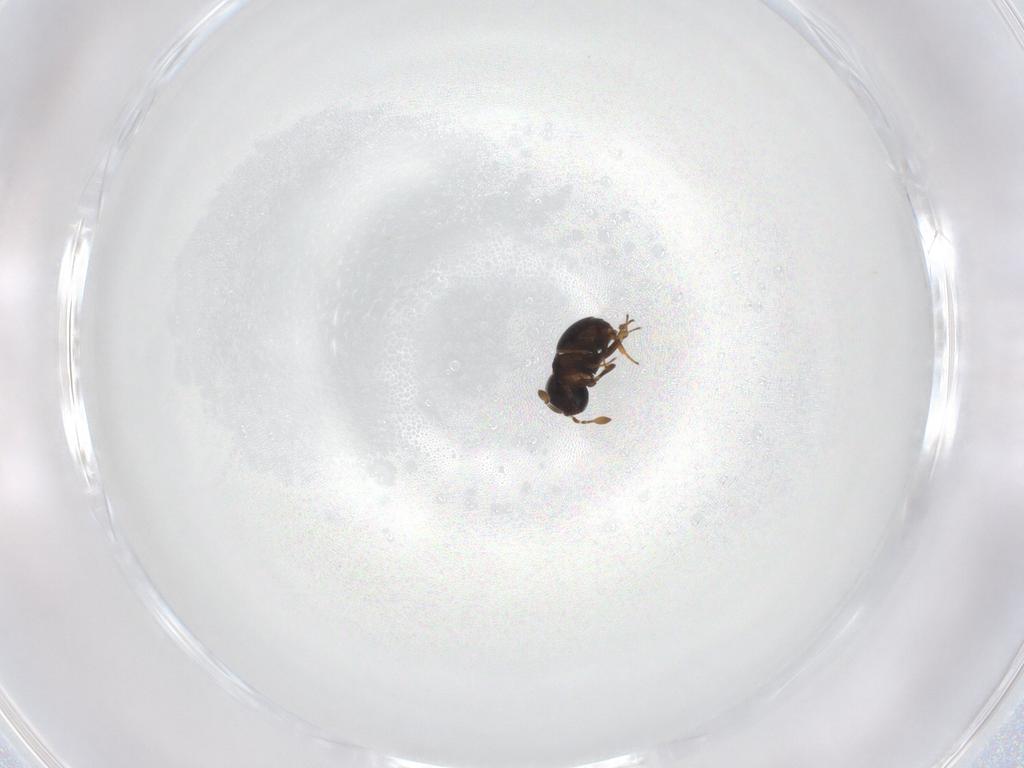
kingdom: Animalia
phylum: Arthropoda
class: Insecta
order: Hymenoptera
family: Scelionidae
